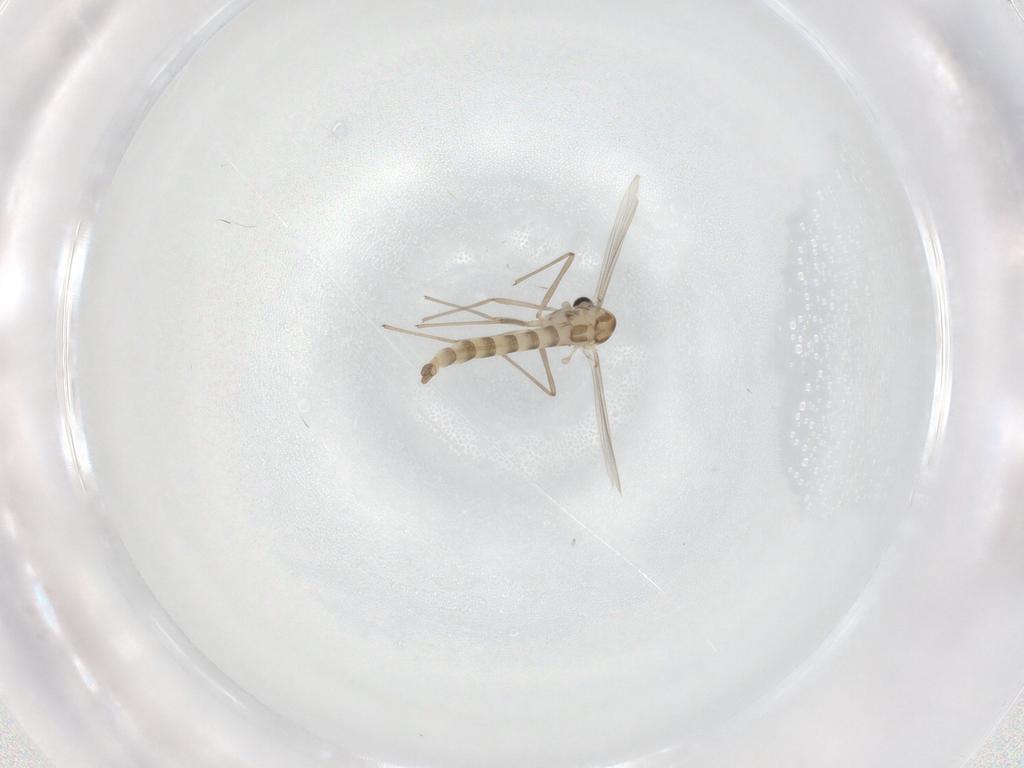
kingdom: Animalia
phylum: Arthropoda
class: Insecta
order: Diptera
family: Chironomidae
